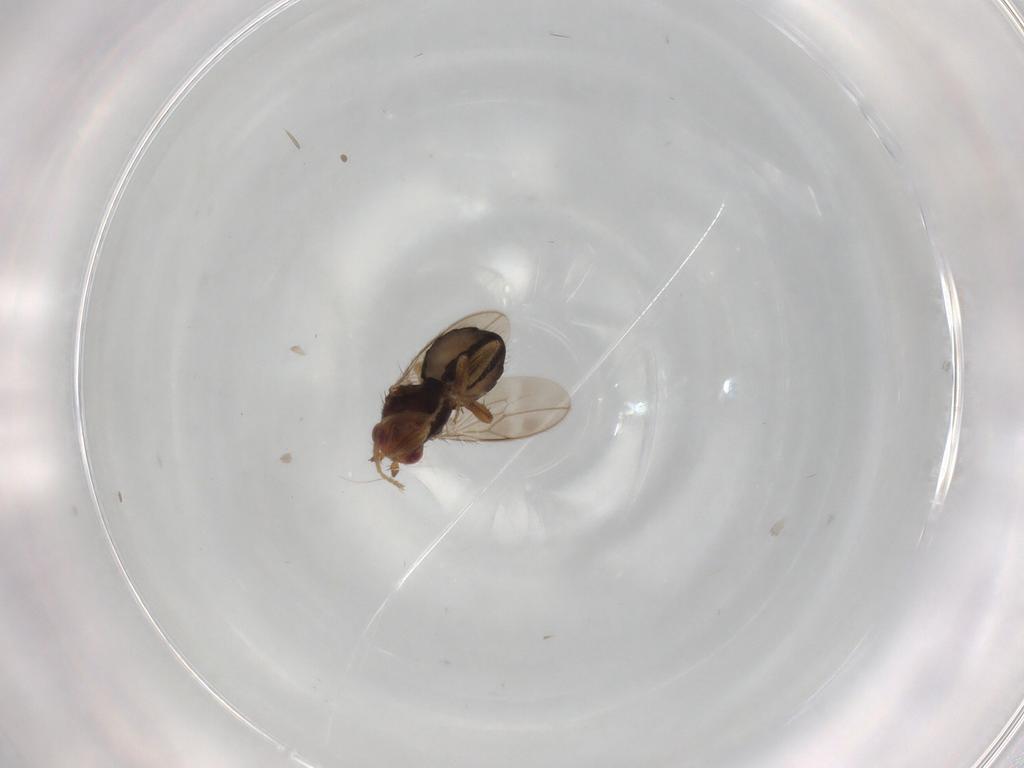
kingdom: Animalia
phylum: Arthropoda
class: Insecta
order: Diptera
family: Sphaeroceridae
